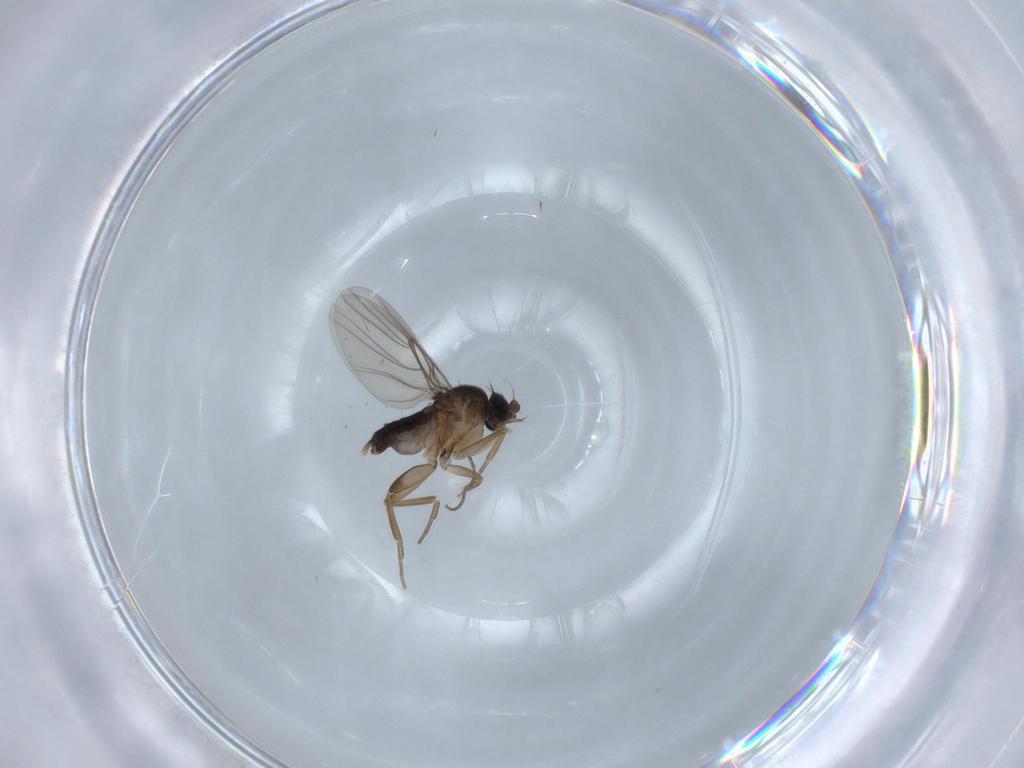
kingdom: Animalia
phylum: Arthropoda
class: Insecta
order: Diptera
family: Phoridae
